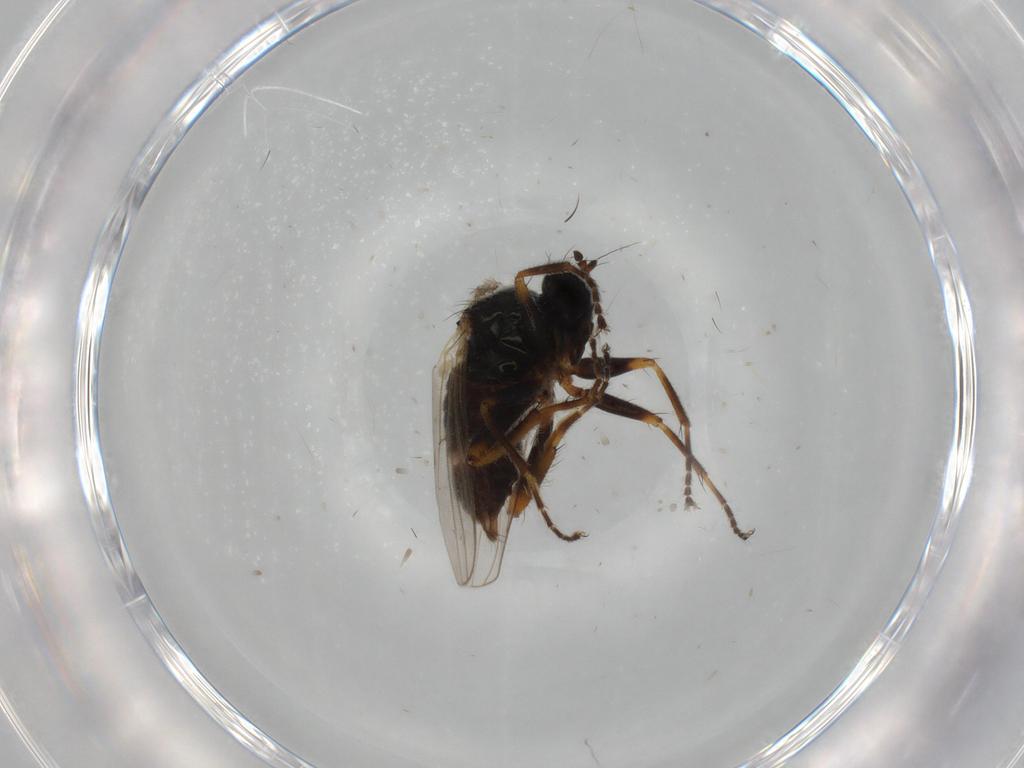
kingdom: Animalia
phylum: Arthropoda
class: Insecta
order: Diptera
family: Hybotidae
